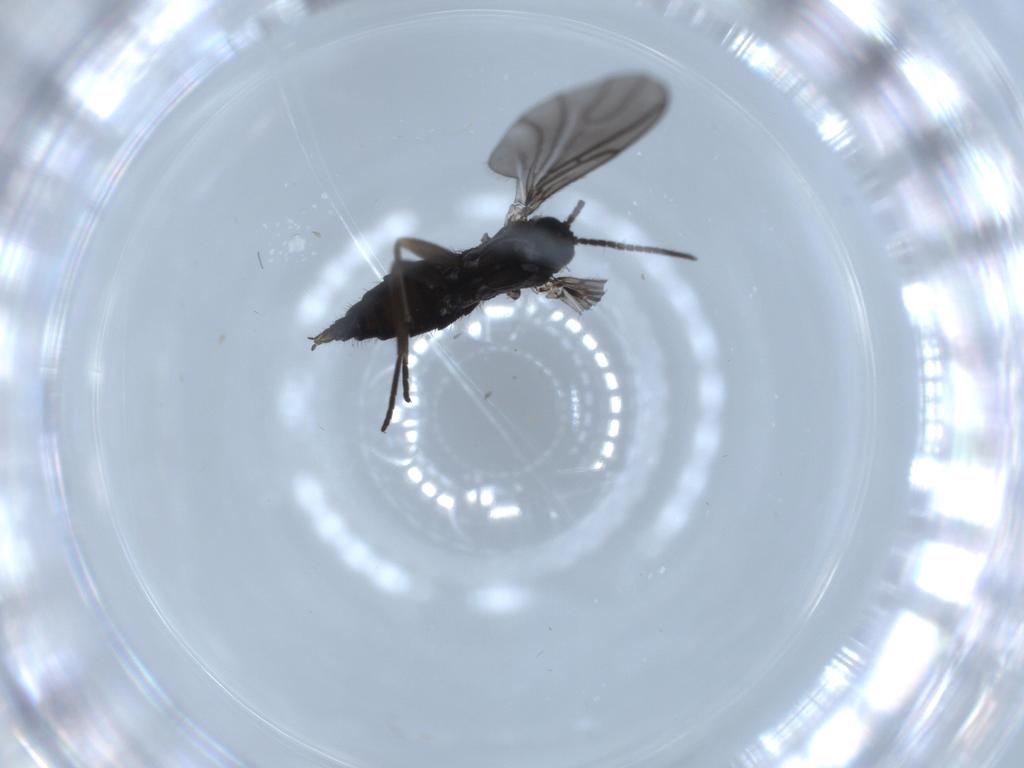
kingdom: Animalia
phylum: Arthropoda
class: Insecta
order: Diptera
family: Sciaridae
